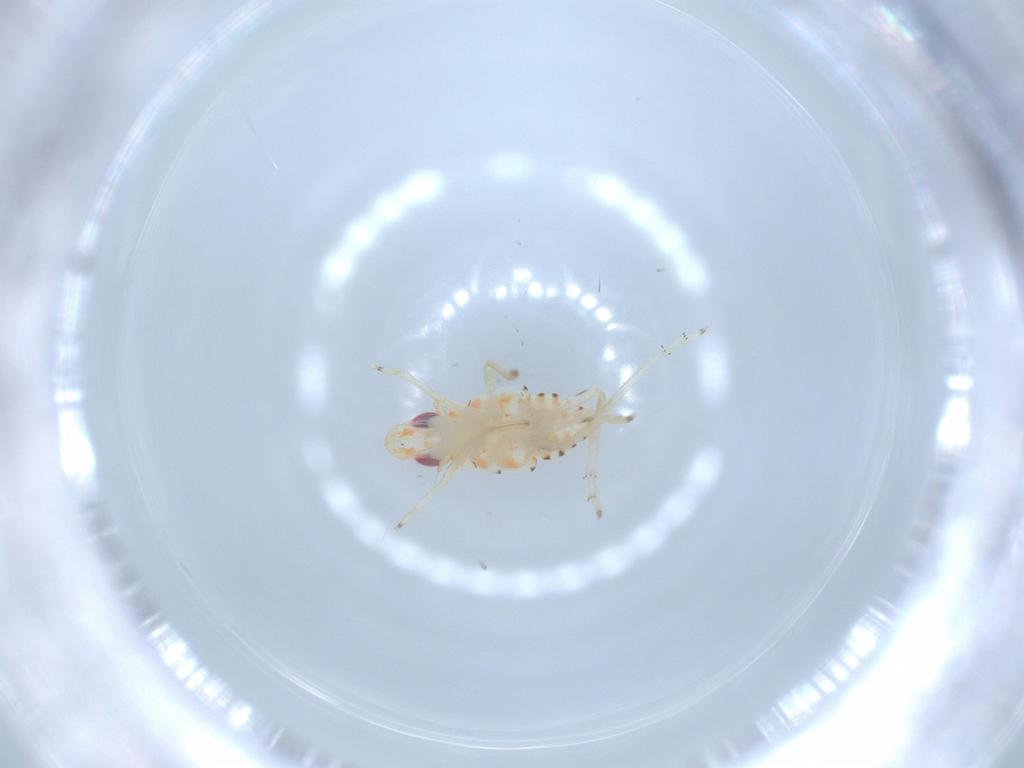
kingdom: Animalia
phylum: Arthropoda
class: Insecta
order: Hemiptera
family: Tropiduchidae
